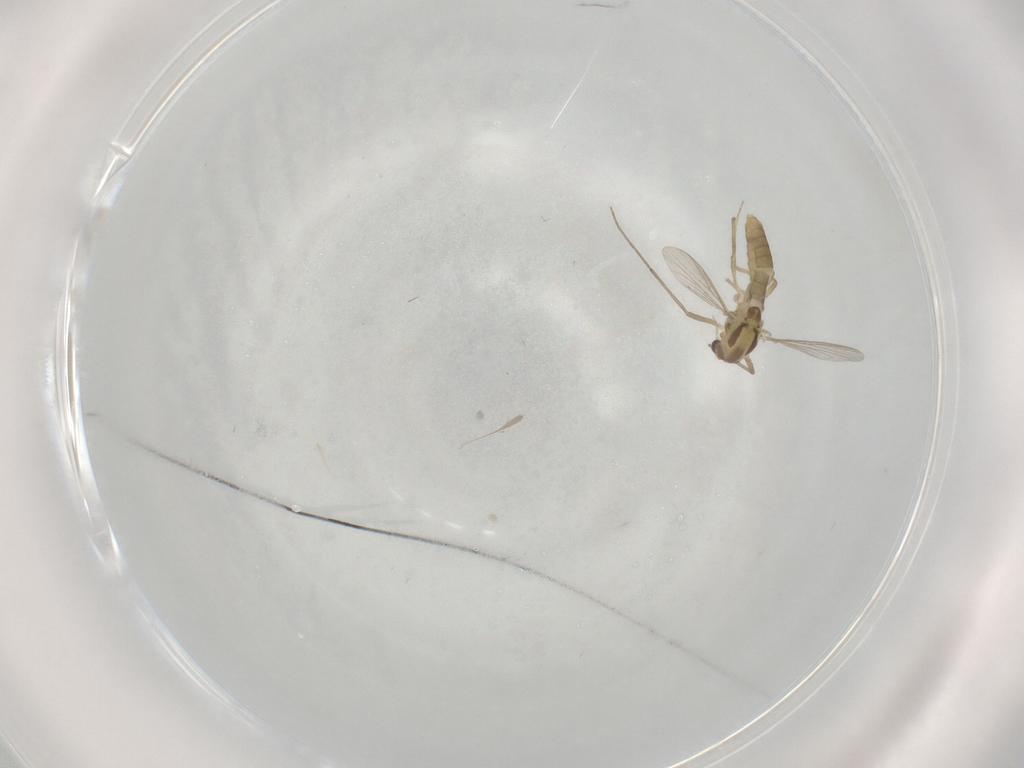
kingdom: Animalia
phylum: Arthropoda
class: Insecta
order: Diptera
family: Chironomidae
